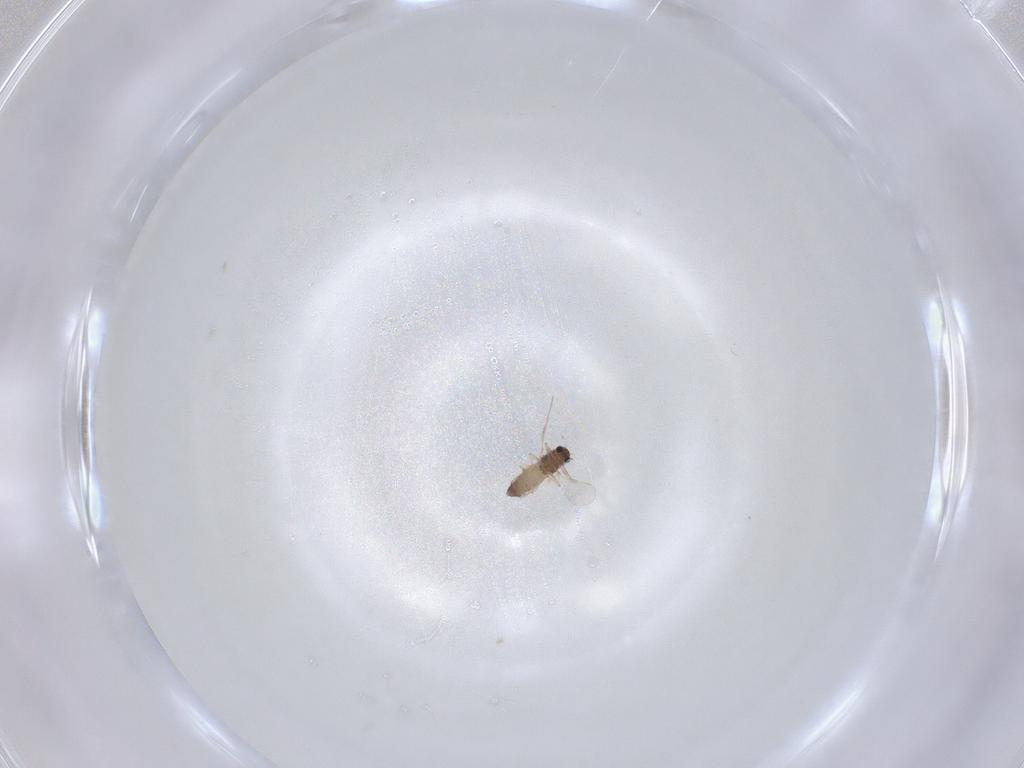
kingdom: Animalia
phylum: Arthropoda
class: Insecta
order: Diptera
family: Chironomidae
